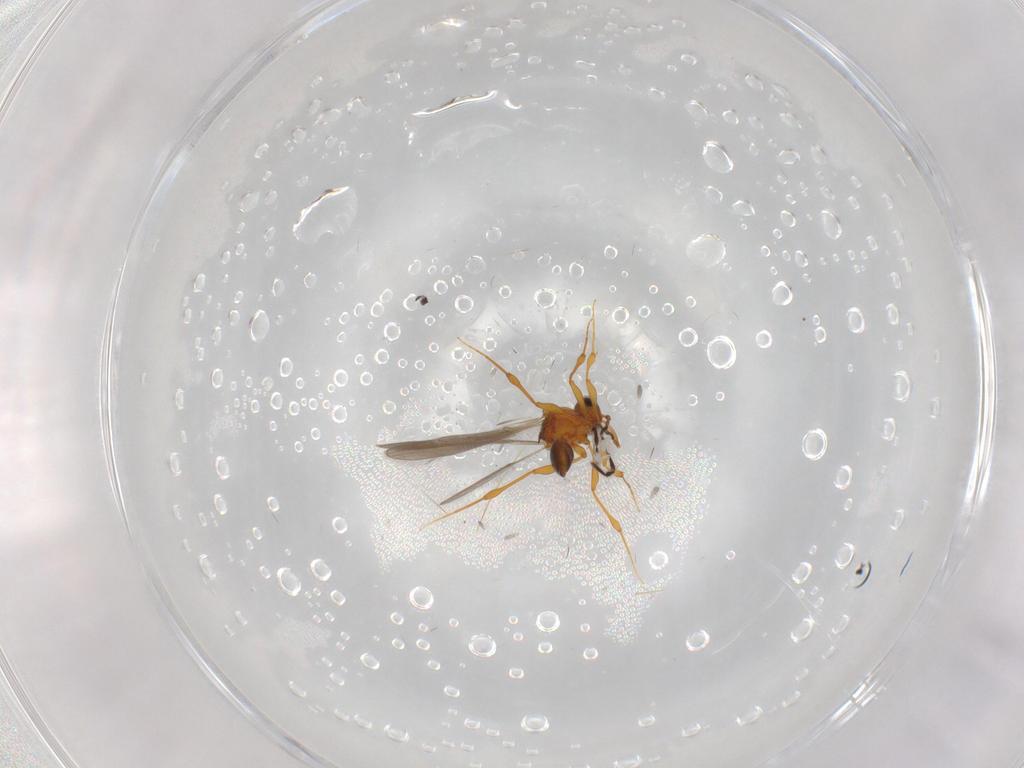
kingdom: Animalia
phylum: Arthropoda
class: Insecta
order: Hymenoptera
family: Platygastridae
